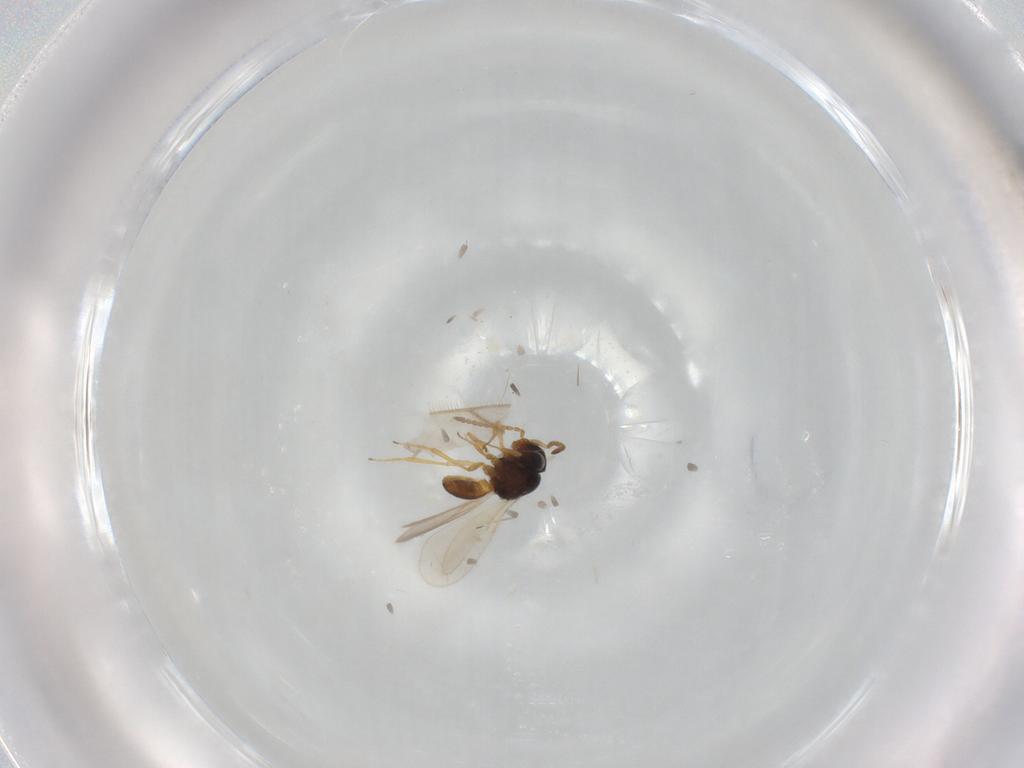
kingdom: Animalia
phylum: Arthropoda
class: Insecta
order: Hymenoptera
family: Scelionidae
